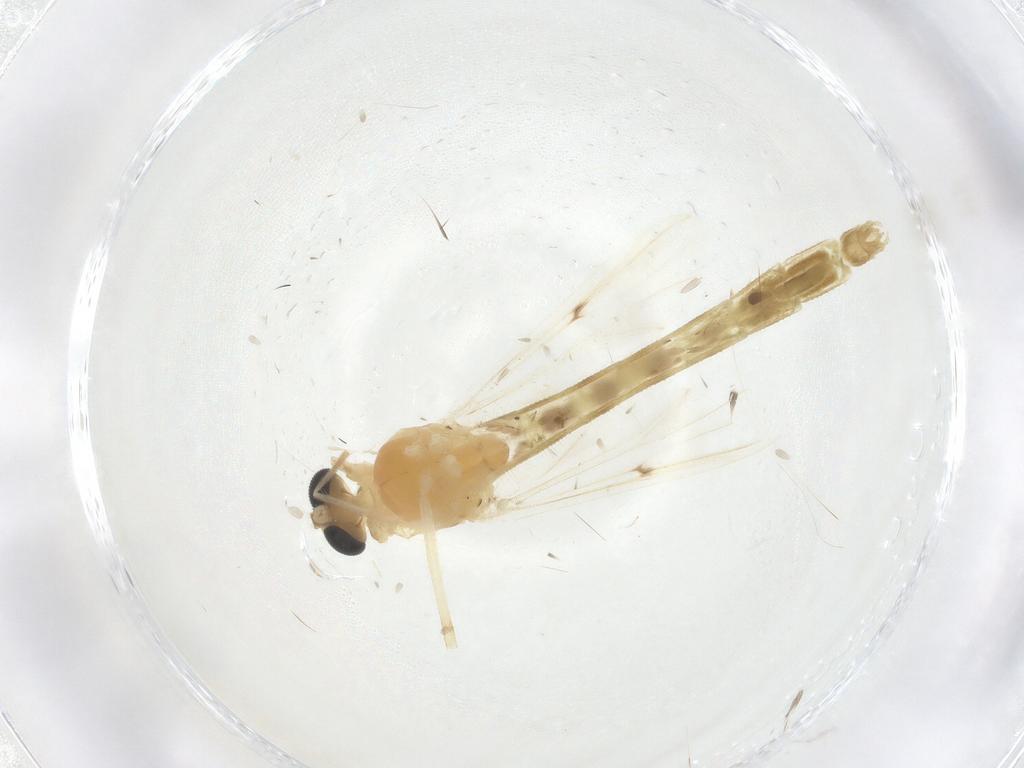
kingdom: Animalia
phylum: Arthropoda
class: Insecta
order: Diptera
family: Chironomidae
